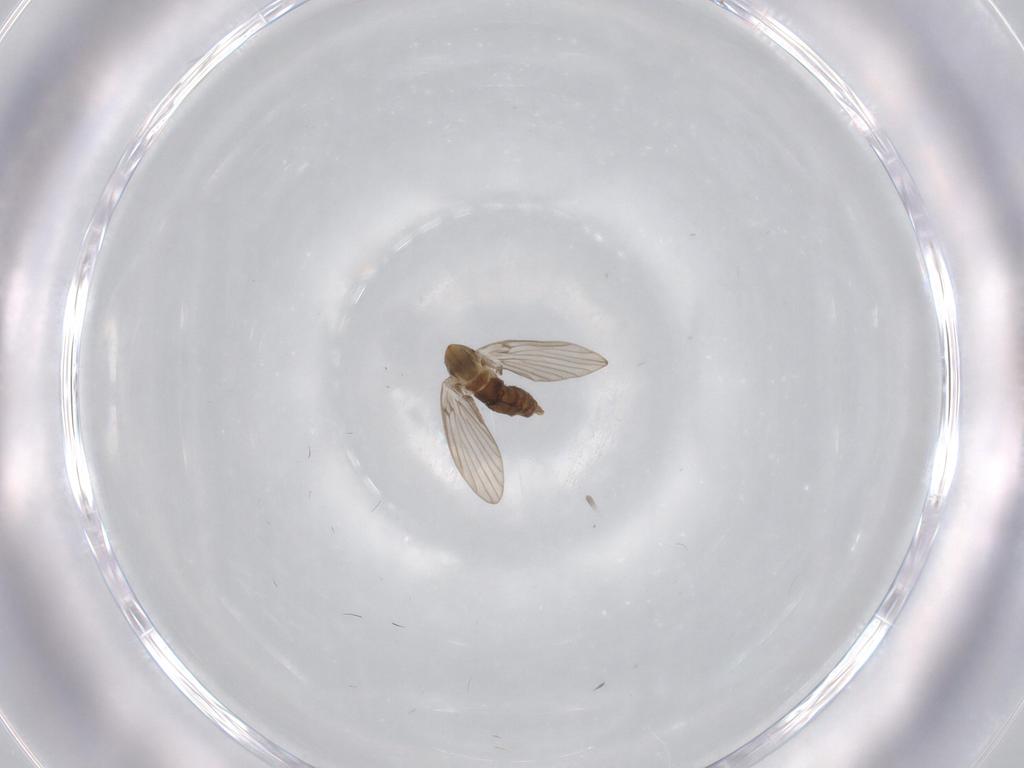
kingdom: Animalia
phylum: Arthropoda
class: Insecta
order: Diptera
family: Psychodidae
